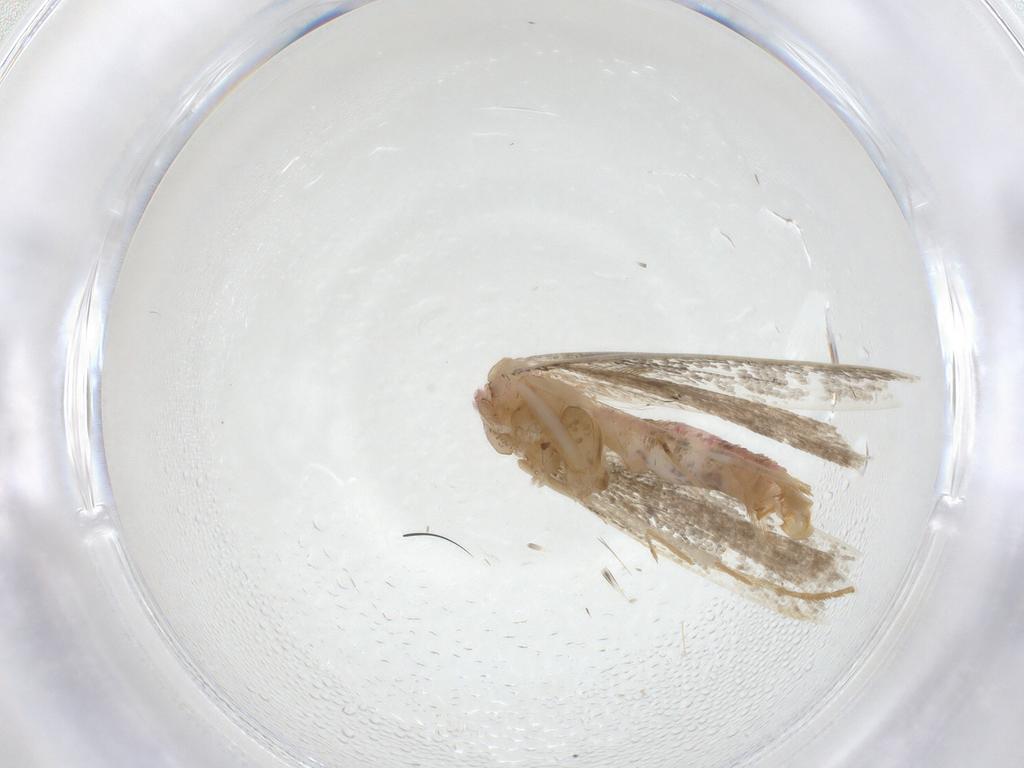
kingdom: Animalia
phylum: Arthropoda
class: Insecta
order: Lepidoptera
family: Crambidae
